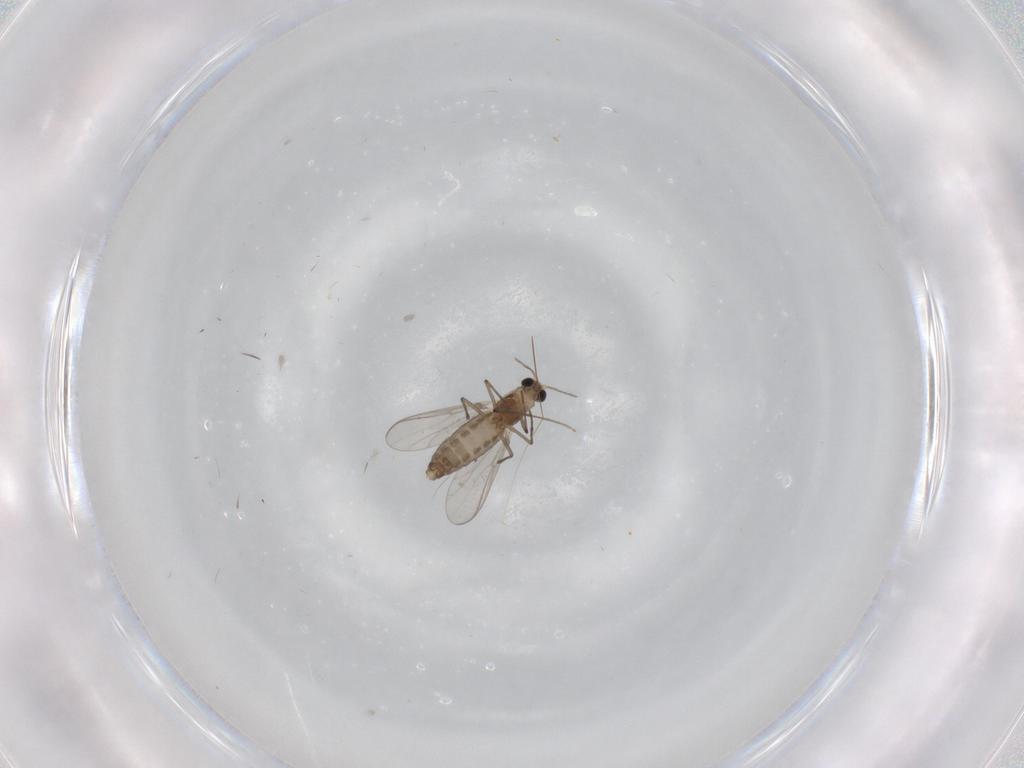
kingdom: Animalia
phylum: Arthropoda
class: Insecta
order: Diptera
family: Chironomidae
